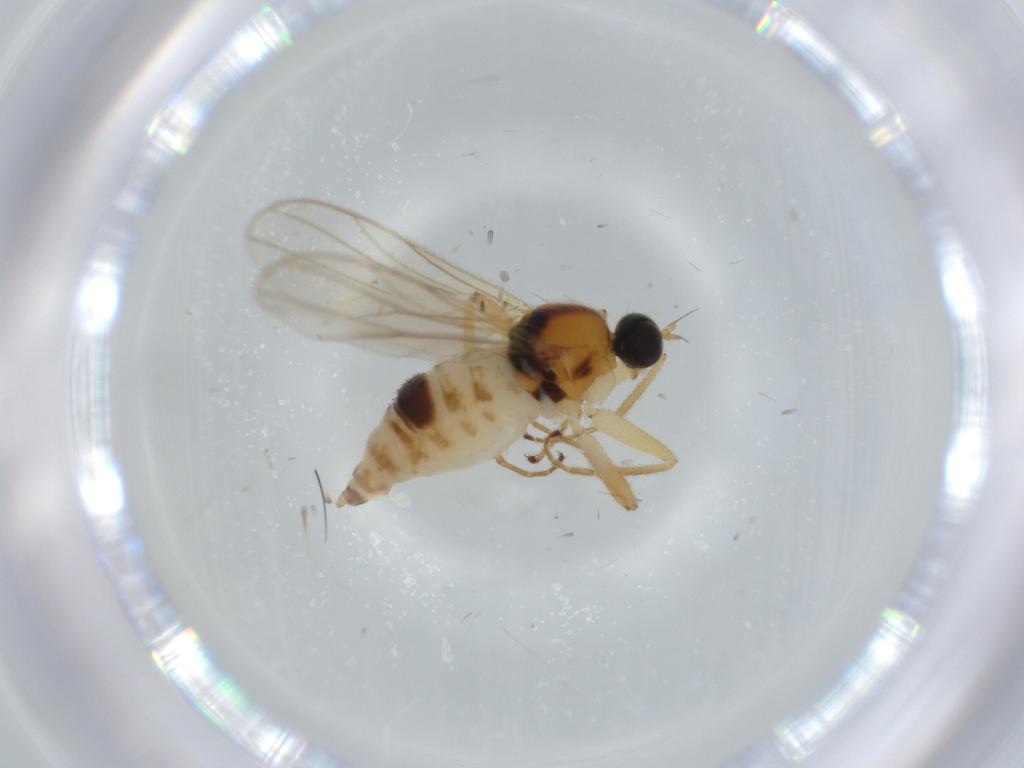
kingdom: Animalia
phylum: Arthropoda
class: Insecta
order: Diptera
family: Hybotidae
